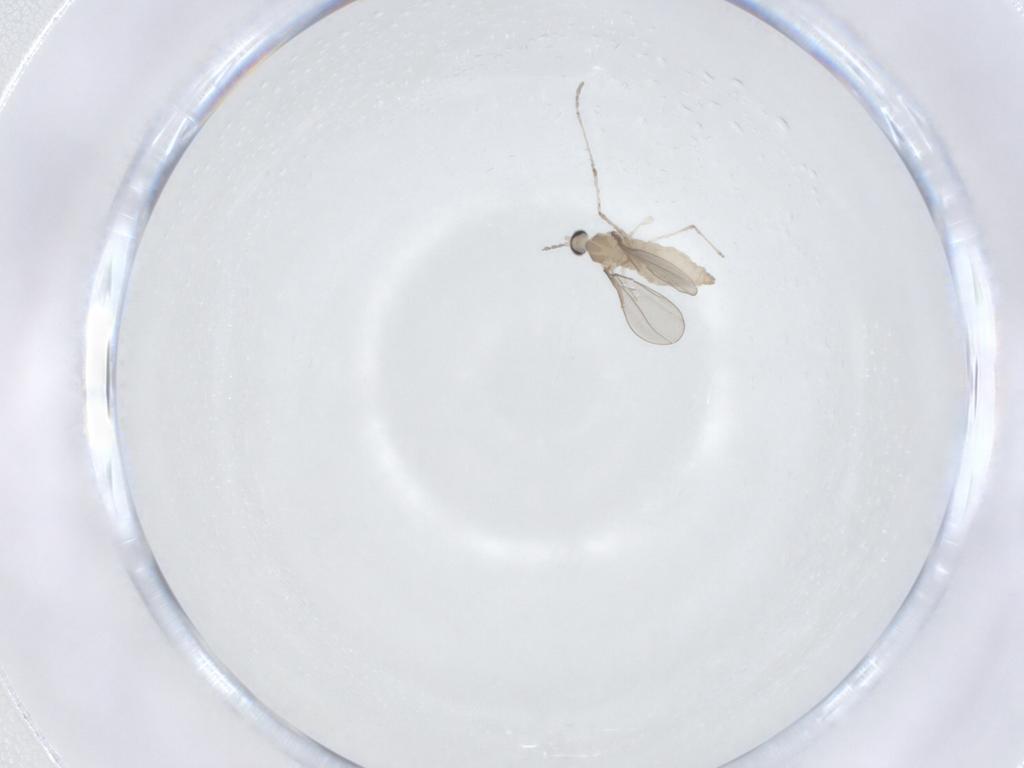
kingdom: Animalia
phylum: Arthropoda
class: Insecta
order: Diptera
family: Cecidomyiidae
